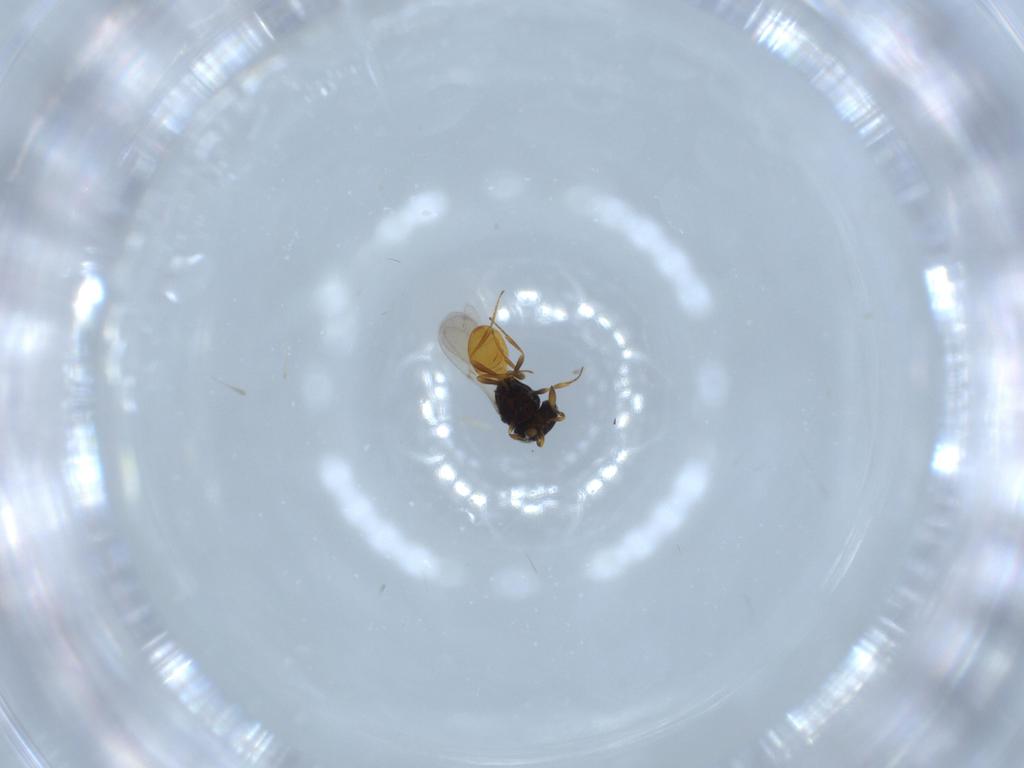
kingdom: Animalia
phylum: Arthropoda
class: Insecta
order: Hymenoptera
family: Scelionidae
